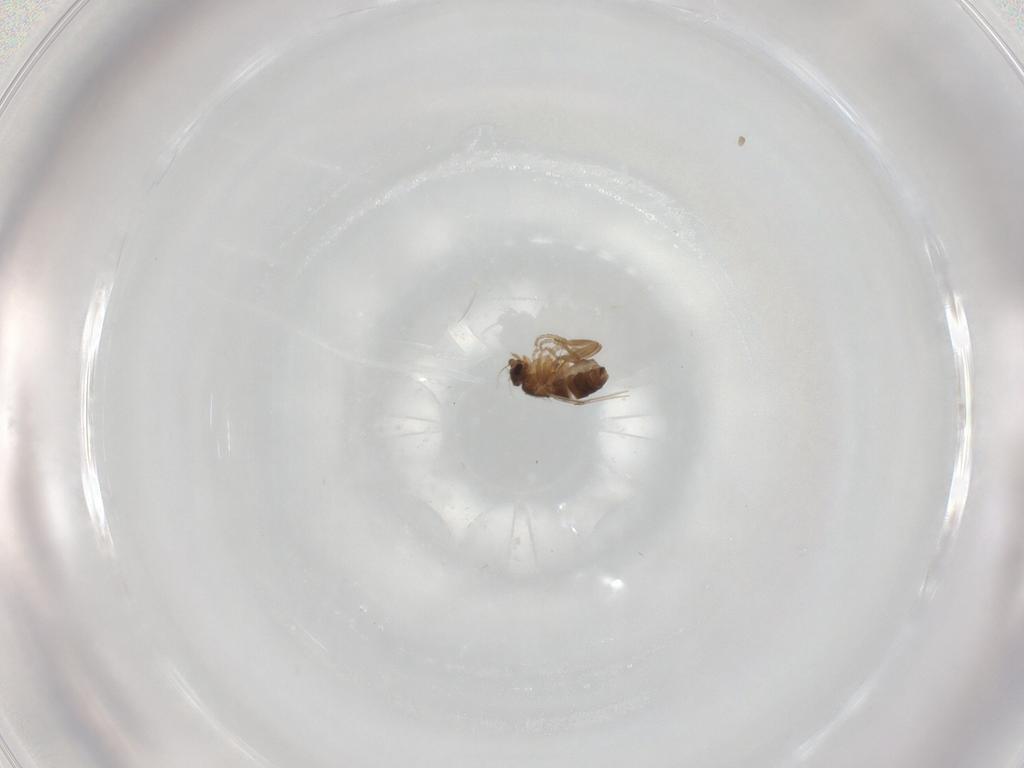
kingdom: Animalia
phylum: Arthropoda
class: Insecta
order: Diptera
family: Phoridae
